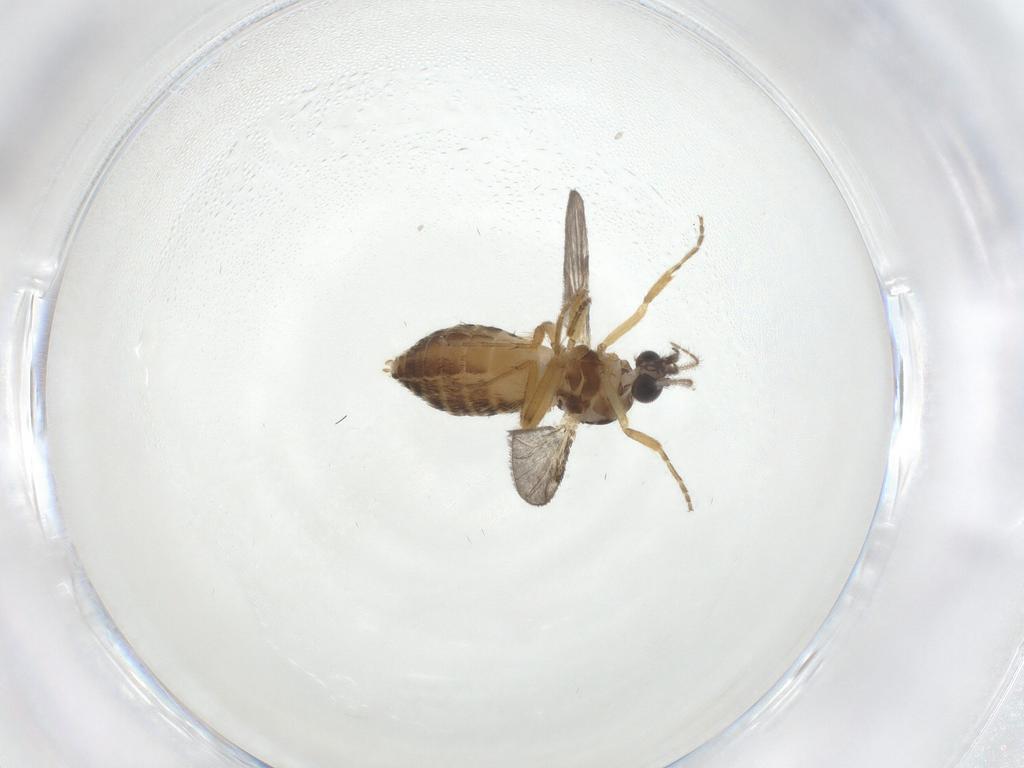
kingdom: Animalia
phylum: Arthropoda
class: Insecta
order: Diptera
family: Ceratopogonidae
